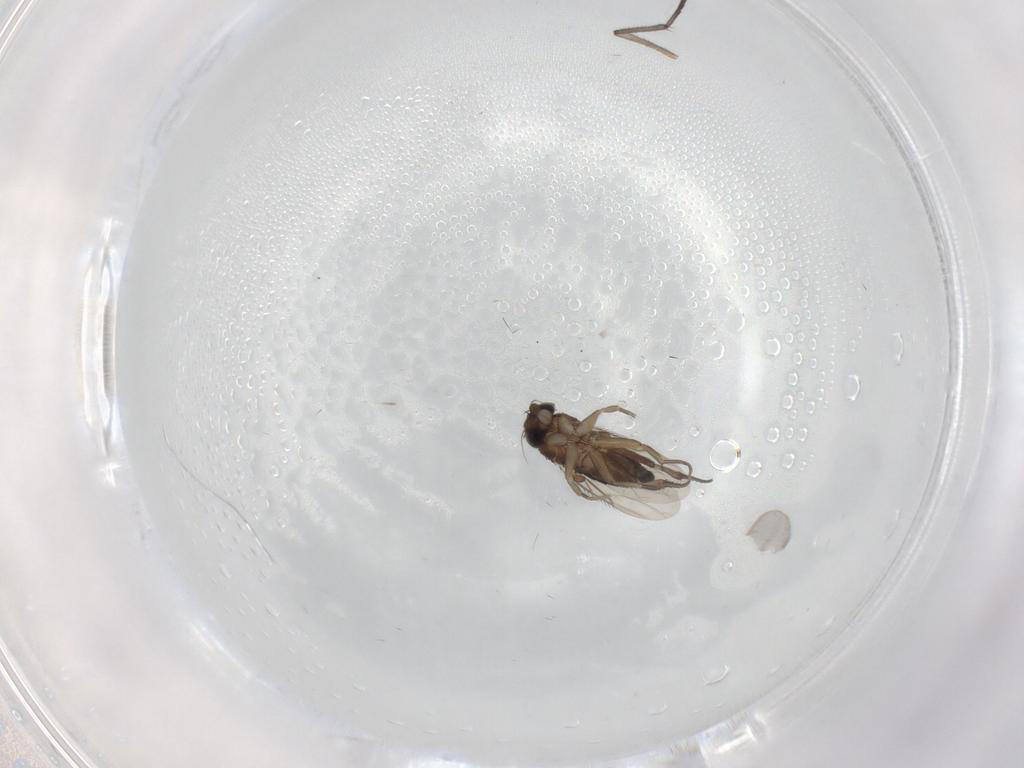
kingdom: Animalia
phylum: Arthropoda
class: Insecta
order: Diptera
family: Phoridae
